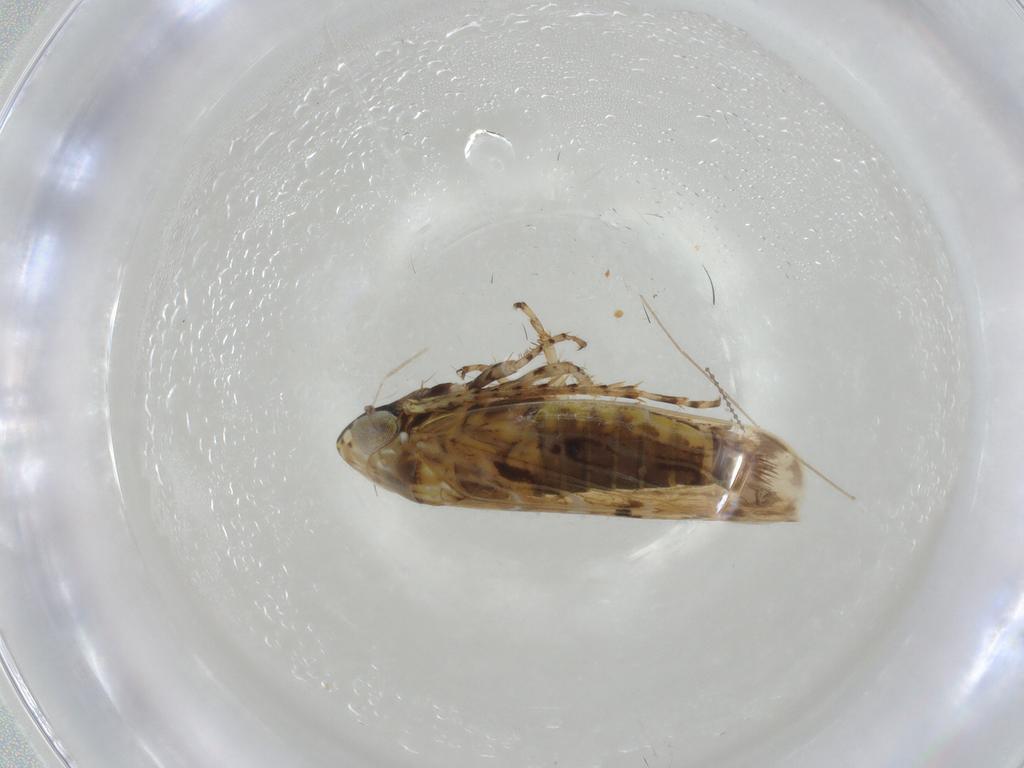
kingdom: Animalia
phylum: Arthropoda
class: Insecta
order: Hemiptera
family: Cicadellidae
